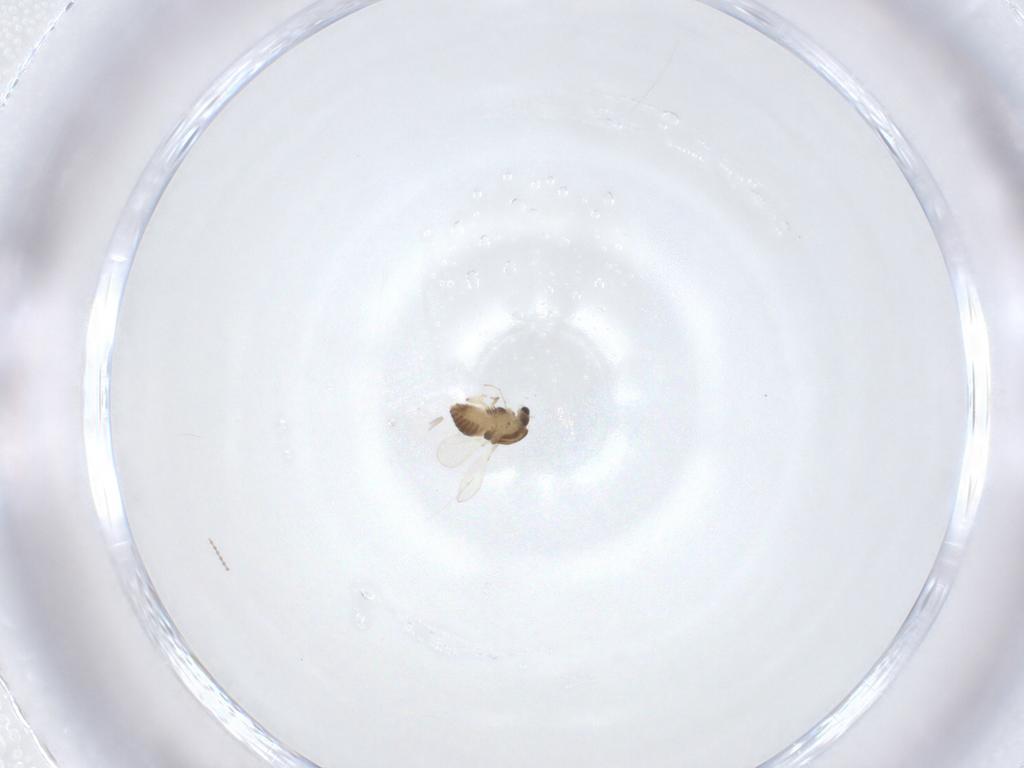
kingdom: Animalia
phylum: Arthropoda
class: Insecta
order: Diptera
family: Chironomidae
